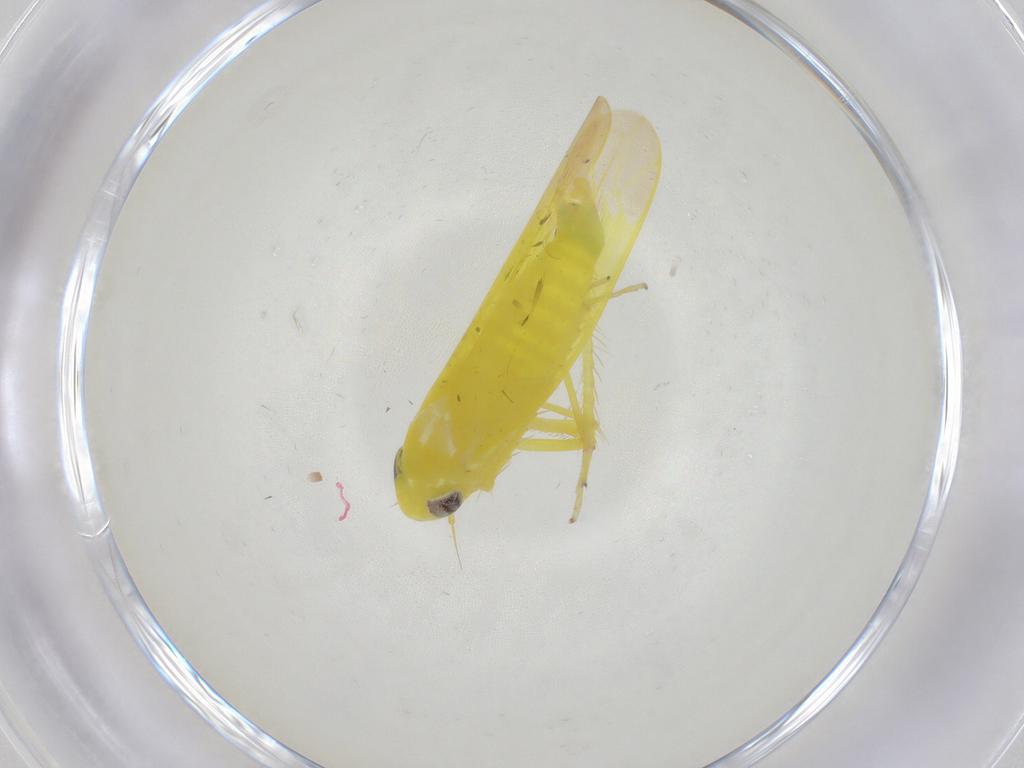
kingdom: Animalia
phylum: Arthropoda
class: Insecta
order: Hemiptera
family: Cicadellidae
